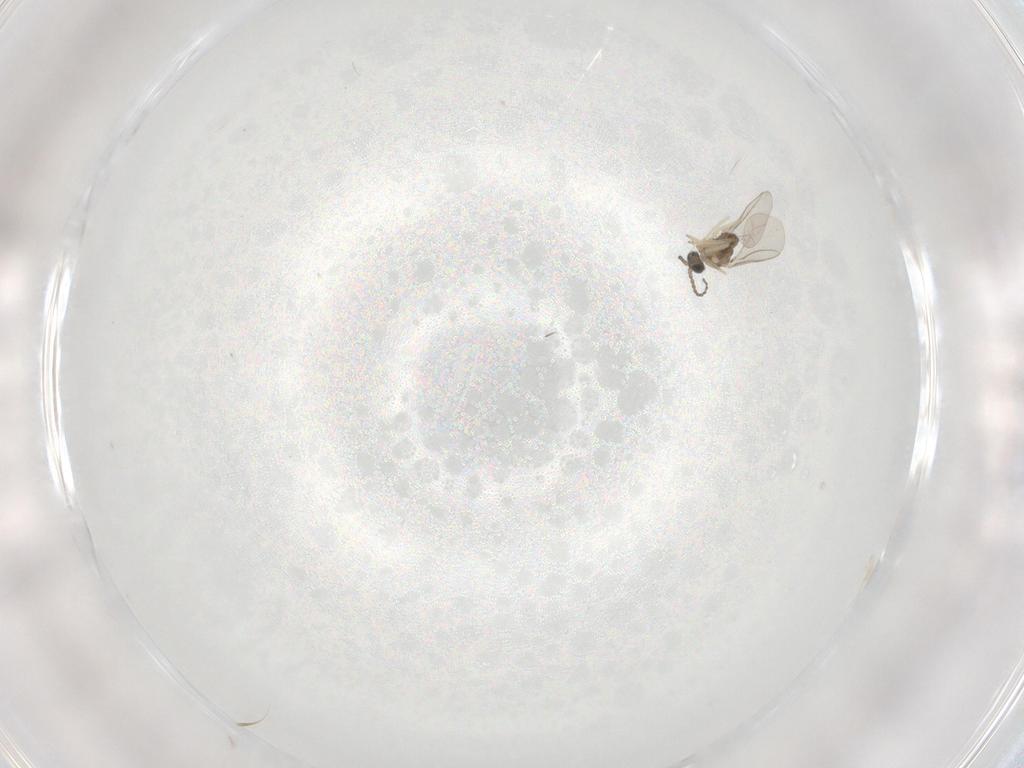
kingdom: Animalia
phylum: Arthropoda
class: Insecta
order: Diptera
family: Cecidomyiidae
